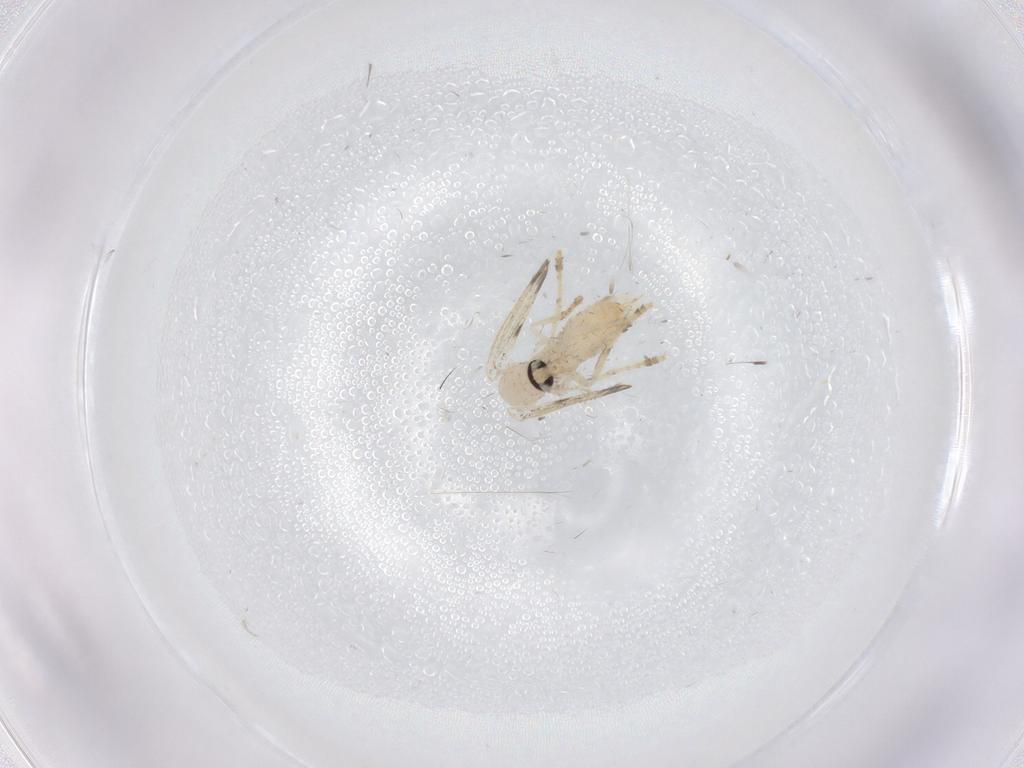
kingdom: Animalia
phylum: Arthropoda
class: Insecta
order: Diptera
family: Psychodidae
